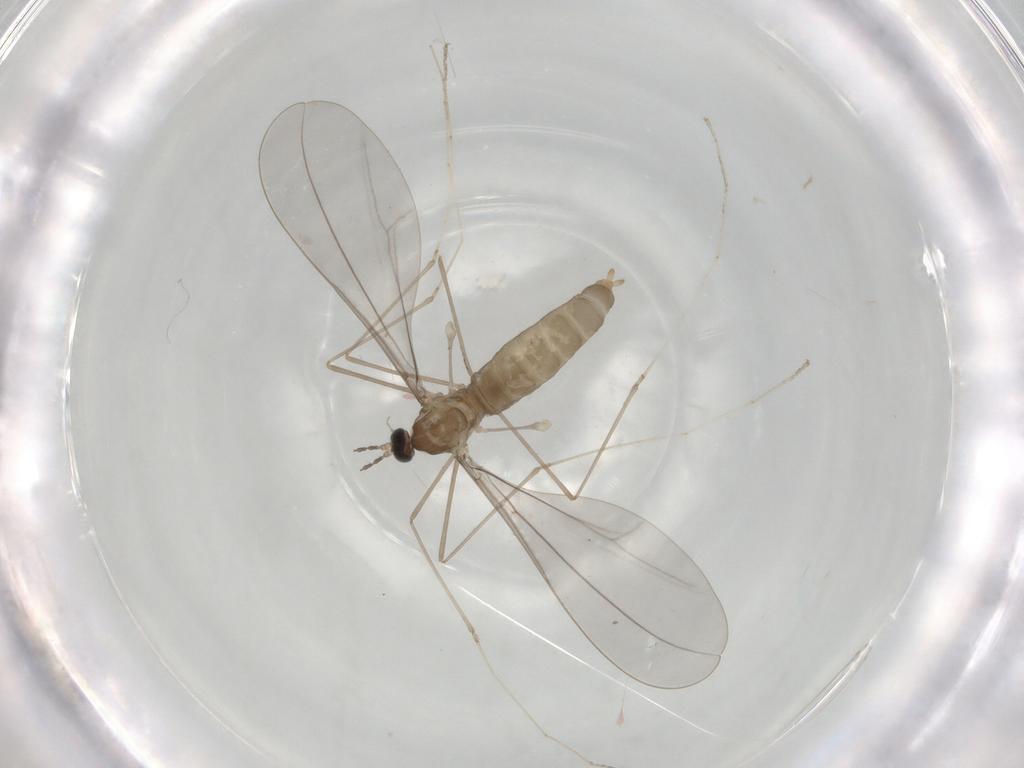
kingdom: Animalia
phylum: Arthropoda
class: Insecta
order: Diptera
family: Cecidomyiidae
